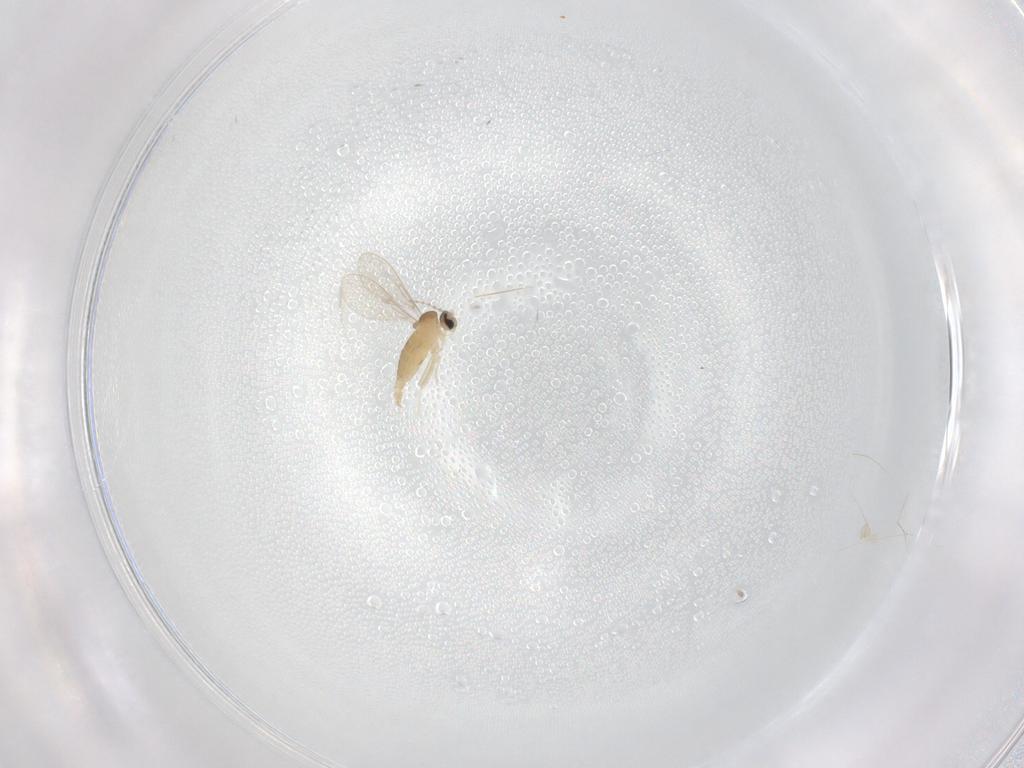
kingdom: Animalia
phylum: Arthropoda
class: Insecta
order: Diptera
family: Cecidomyiidae
